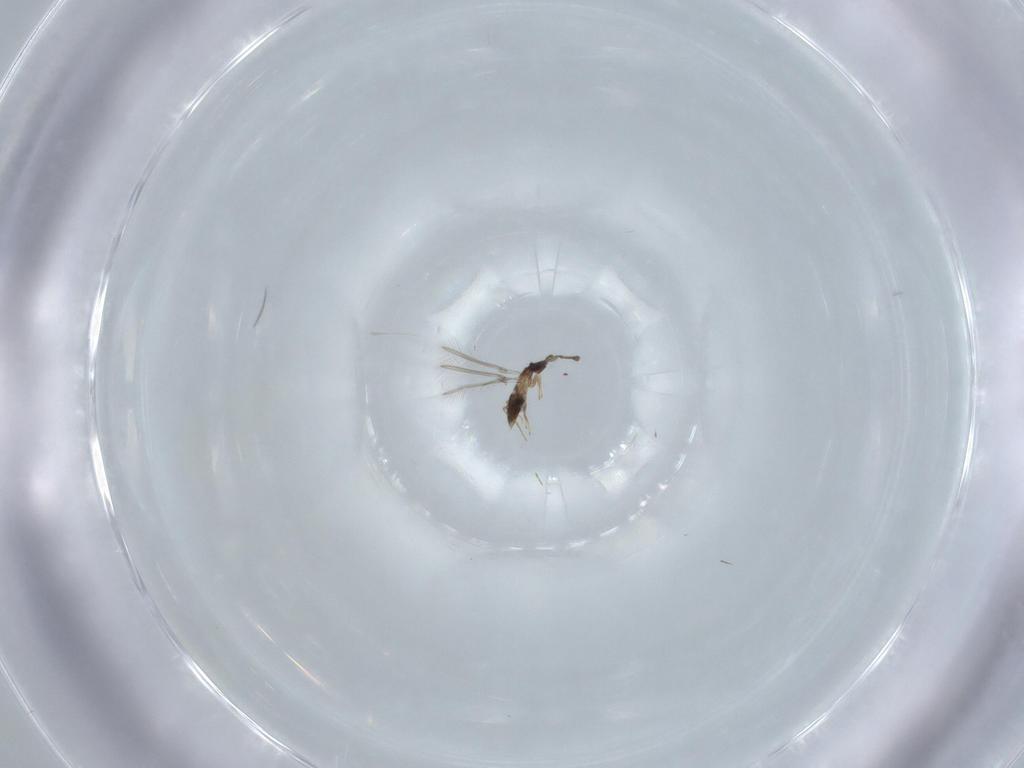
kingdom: Animalia
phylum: Arthropoda
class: Insecta
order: Hymenoptera
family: Mymaridae
